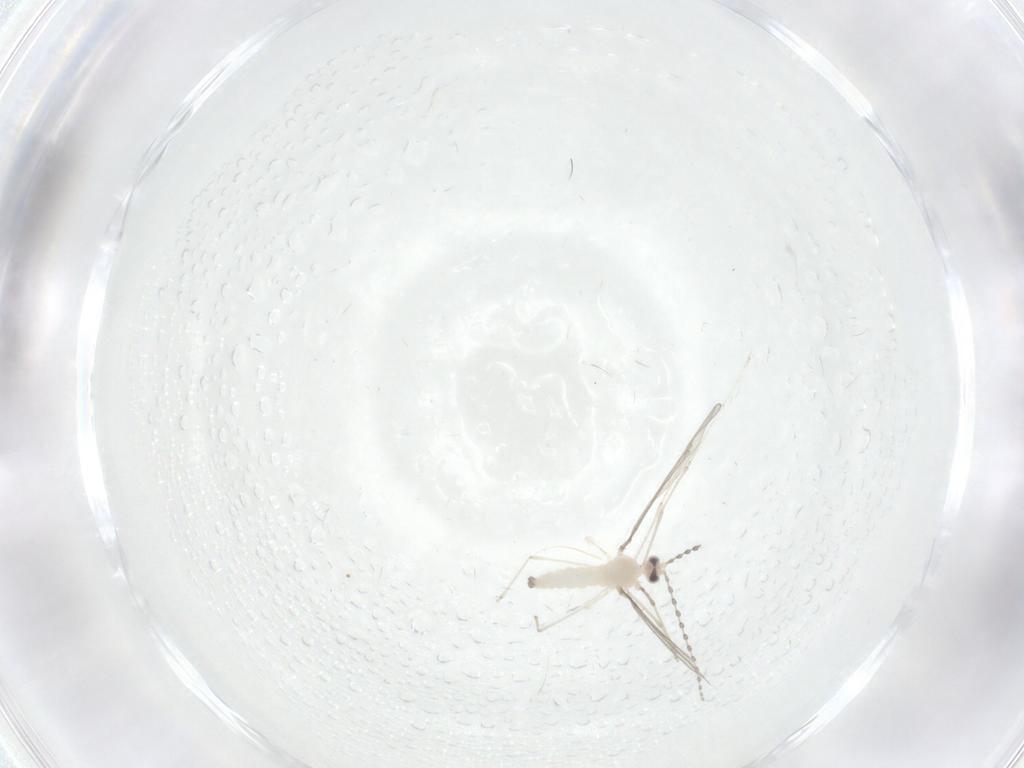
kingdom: Animalia
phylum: Arthropoda
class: Insecta
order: Diptera
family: Cecidomyiidae
